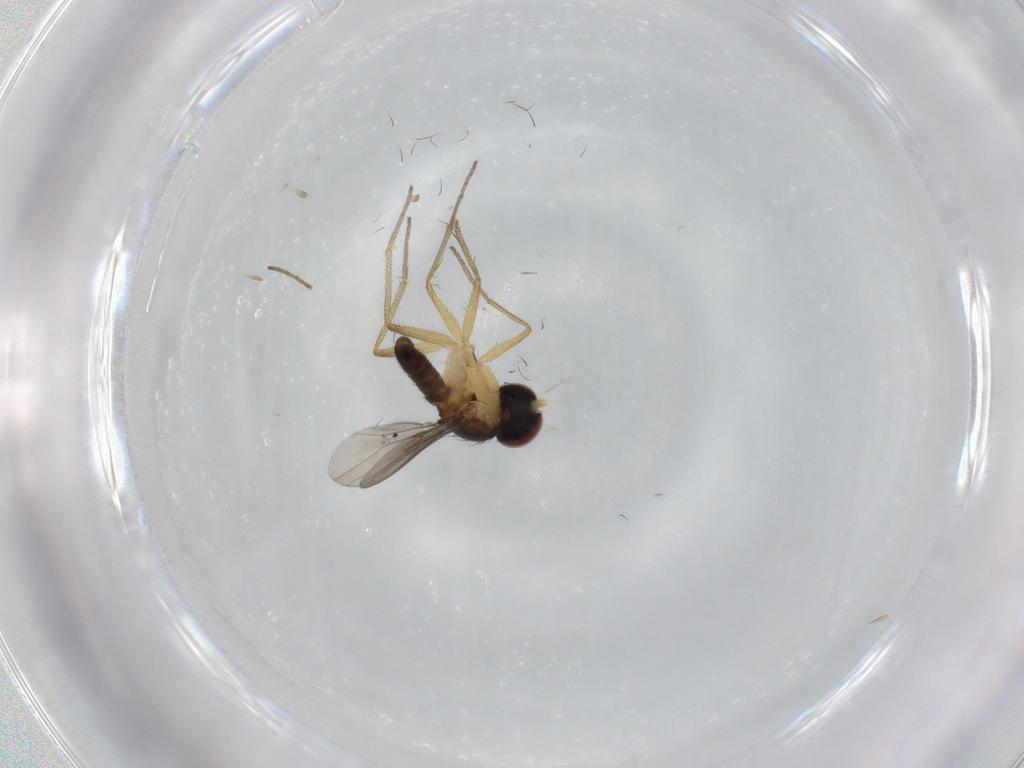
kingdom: Animalia
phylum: Arthropoda
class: Insecta
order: Diptera
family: Dolichopodidae
